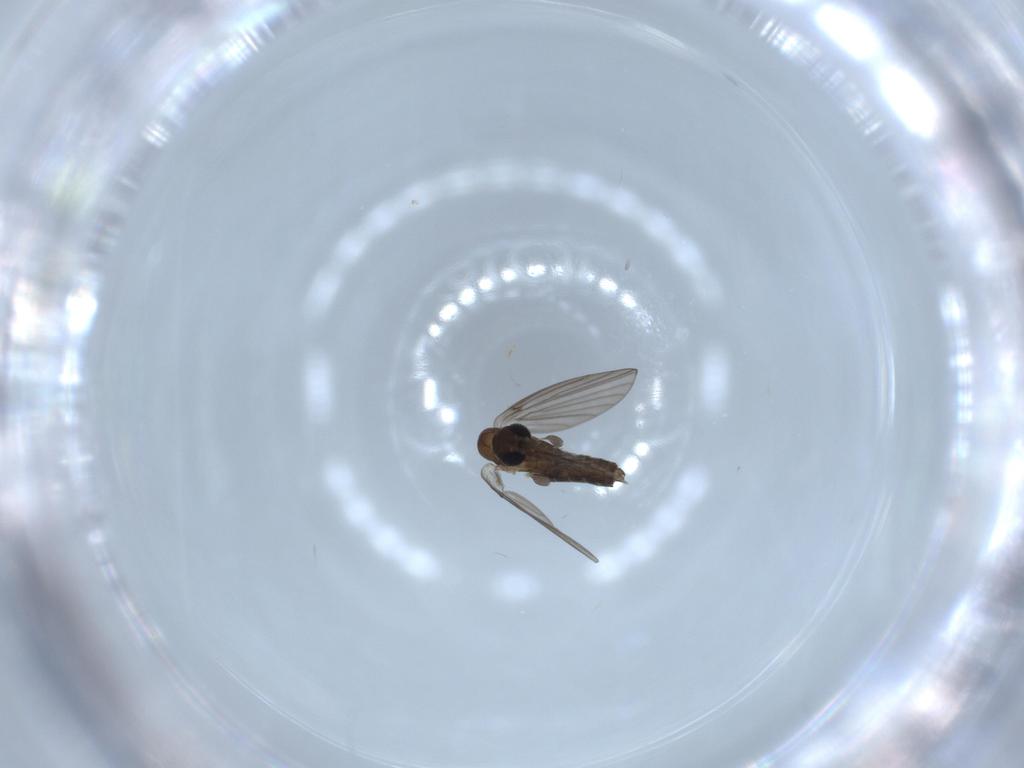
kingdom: Animalia
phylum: Arthropoda
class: Insecta
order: Diptera
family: Psychodidae
